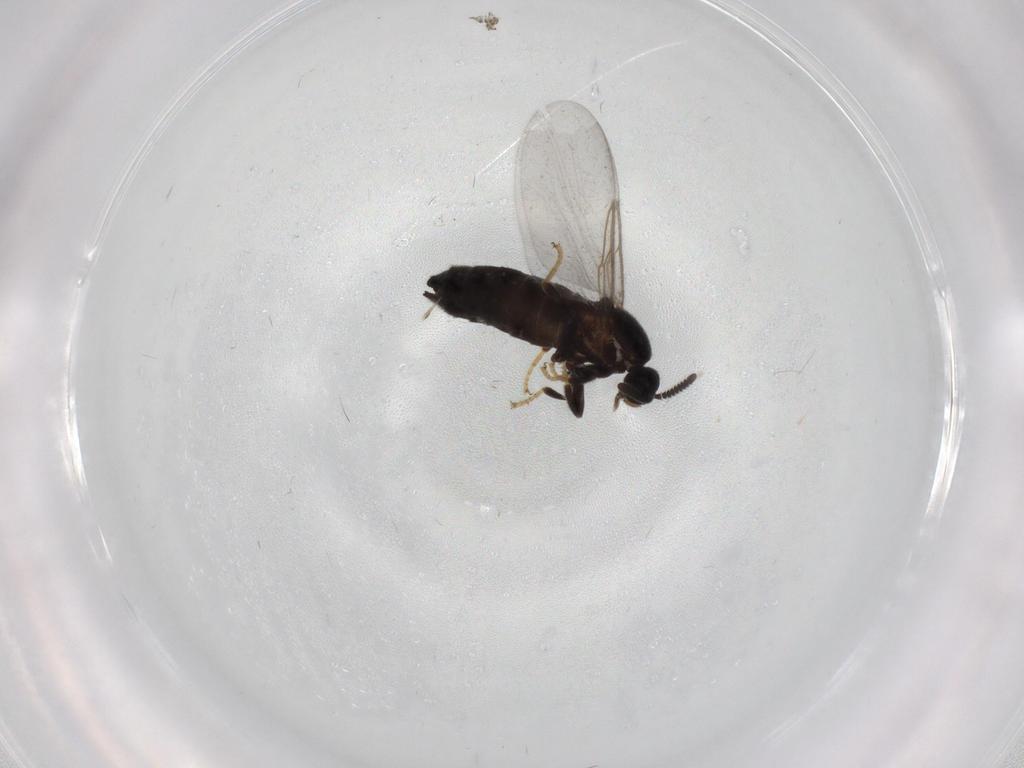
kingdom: Animalia
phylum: Arthropoda
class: Insecta
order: Diptera
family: Scatopsidae
